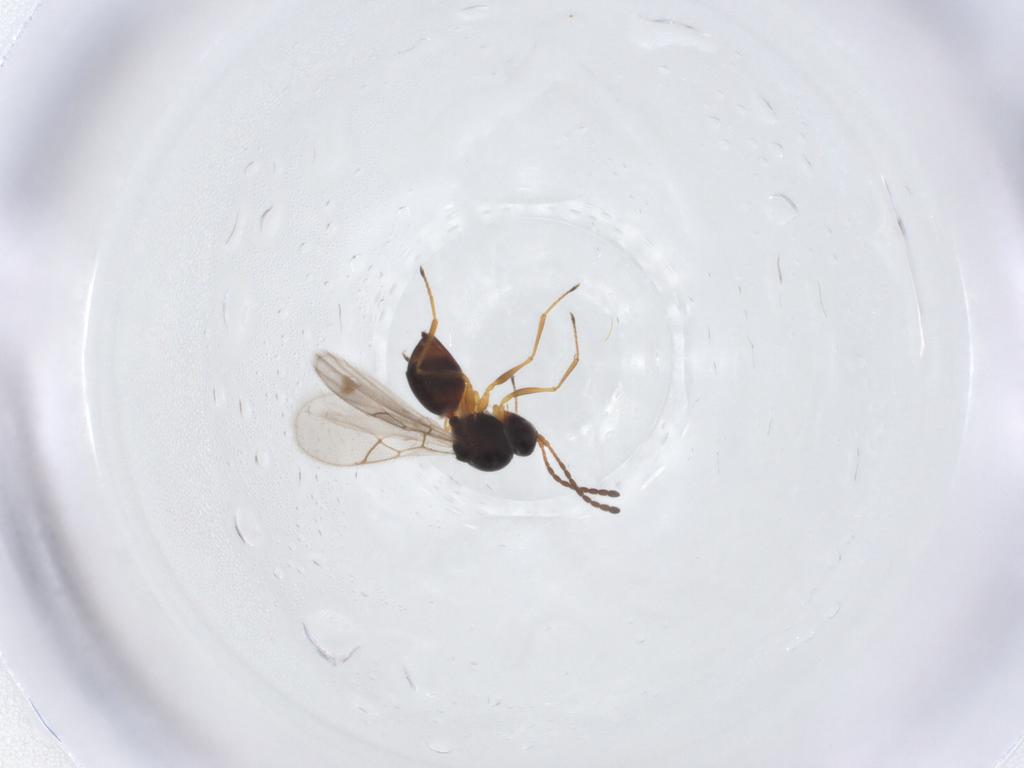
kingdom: Animalia
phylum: Arthropoda
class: Insecta
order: Hymenoptera
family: Figitidae
